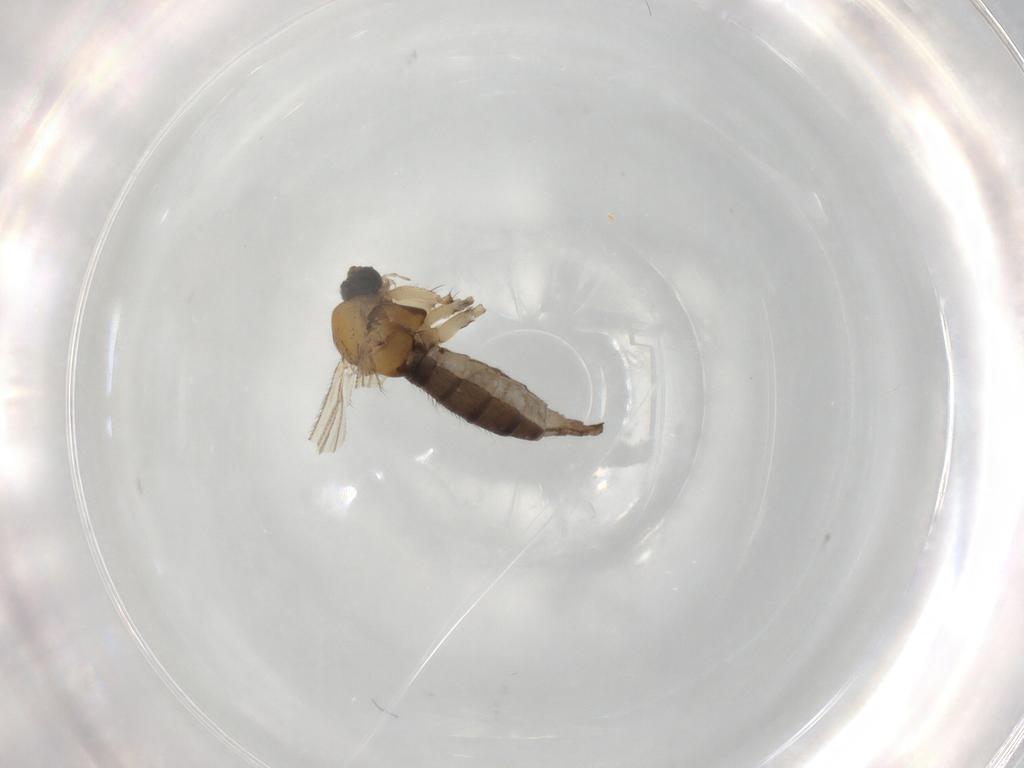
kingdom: Animalia
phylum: Arthropoda
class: Insecta
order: Diptera
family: Sciaridae
